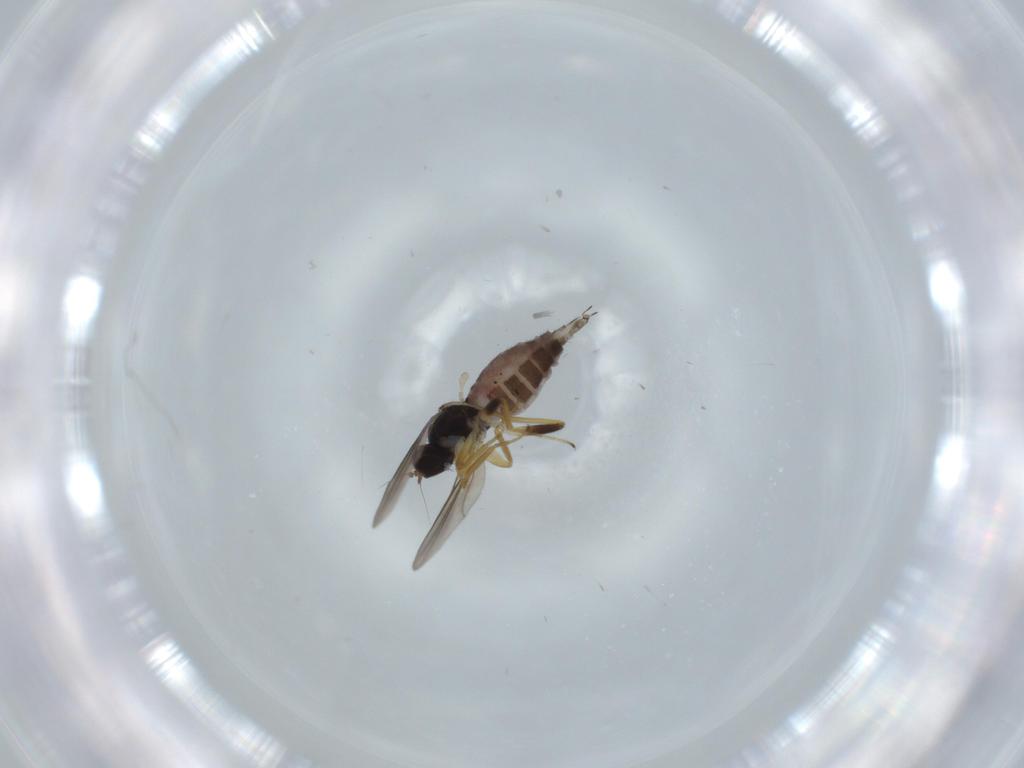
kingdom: Animalia
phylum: Arthropoda
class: Insecta
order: Diptera
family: Hybotidae
